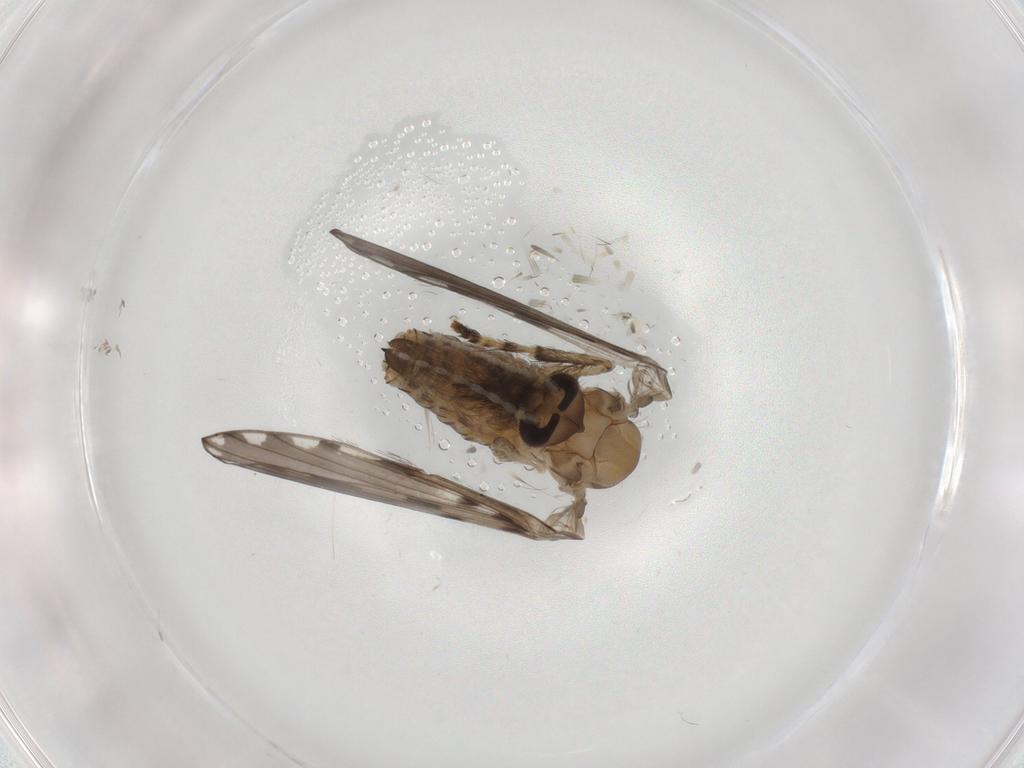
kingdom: Animalia
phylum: Arthropoda
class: Insecta
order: Diptera
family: Psychodidae
